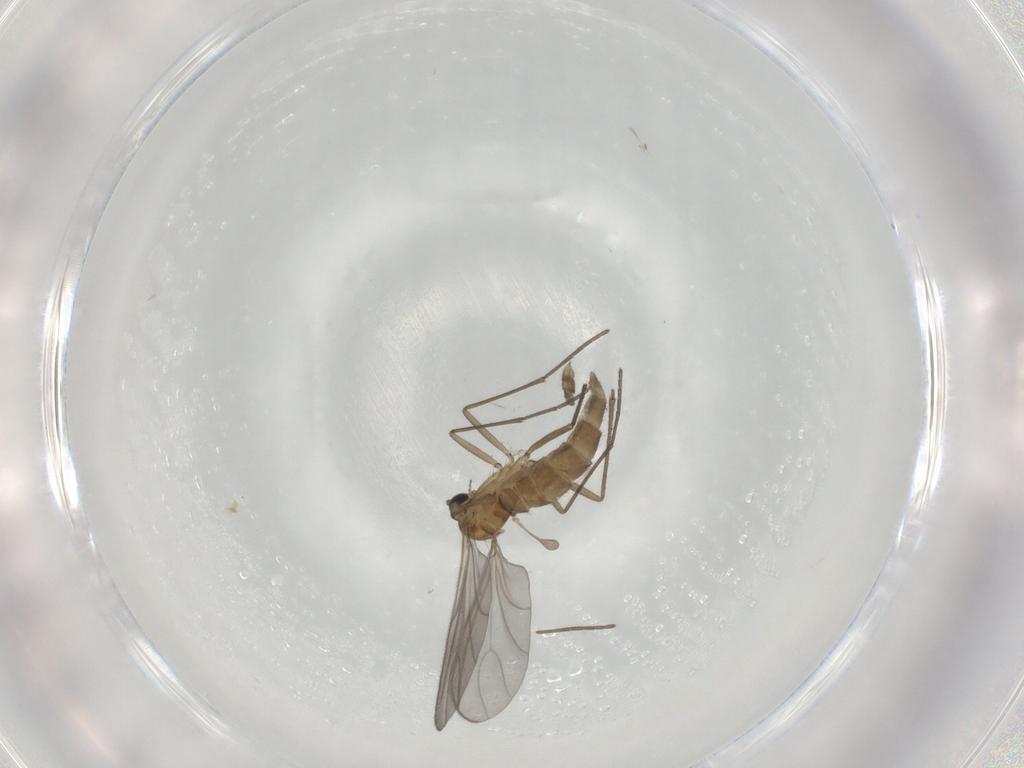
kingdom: Animalia
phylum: Arthropoda
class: Insecta
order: Diptera
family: Sciaridae
